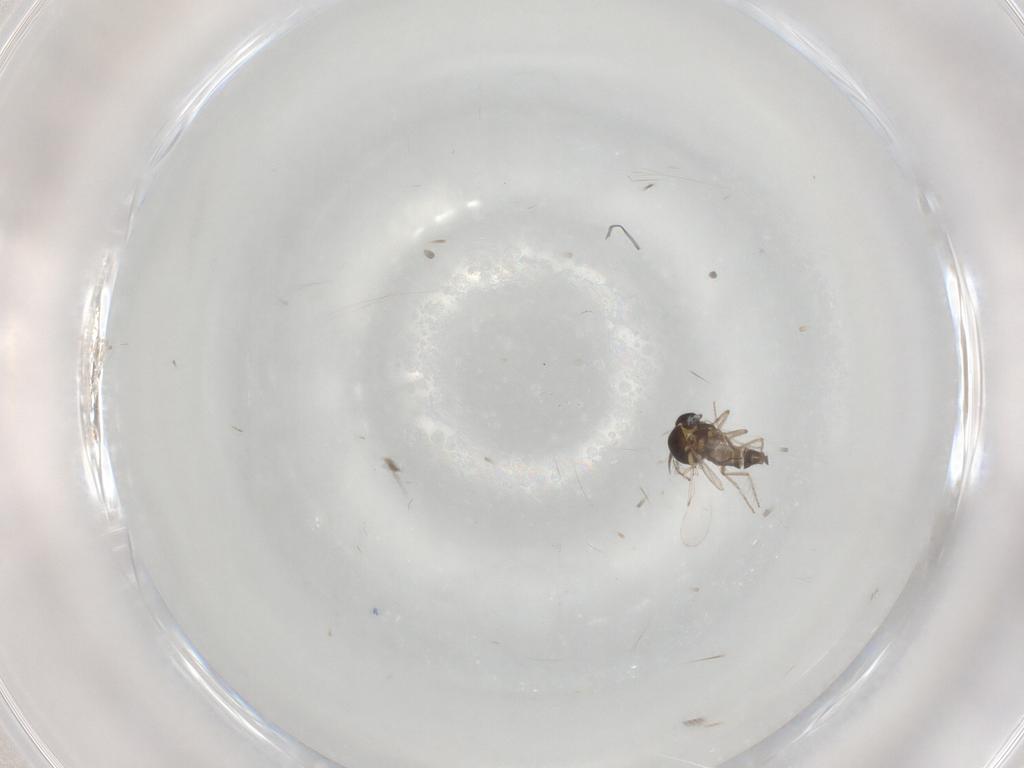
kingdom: Animalia
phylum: Arthropoda
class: Insecta
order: Diptera
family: Ceratopogonidae
